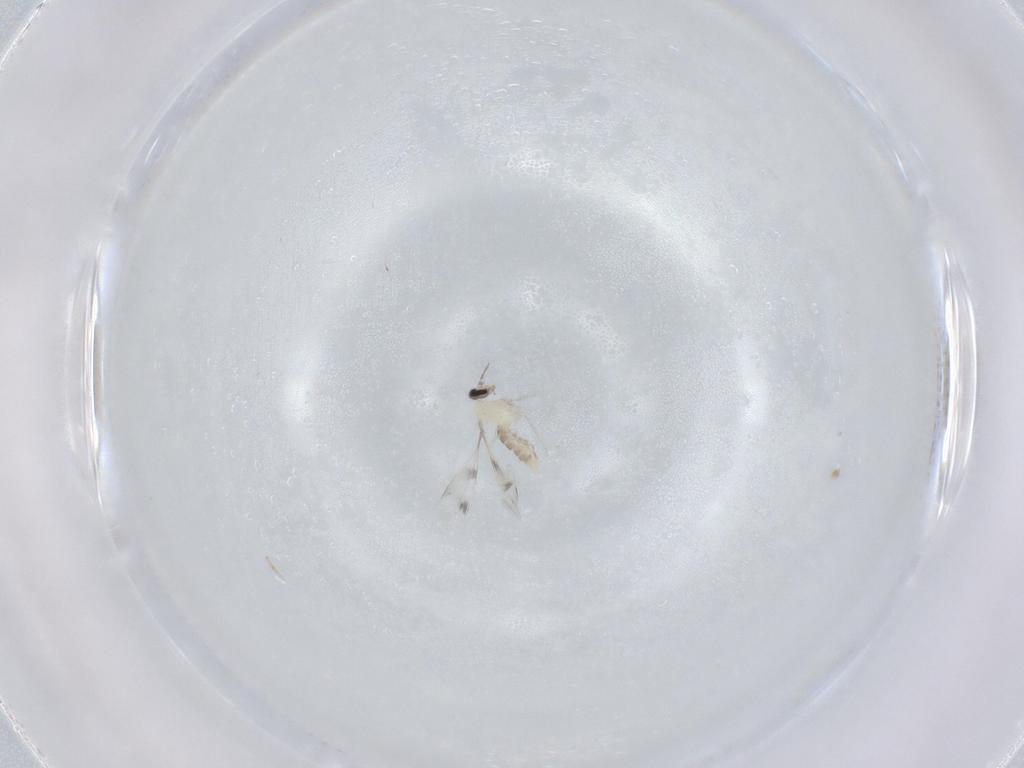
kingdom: Animalia
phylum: Arthropoda
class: Insecta
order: Diptera
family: Cecidomyiidae
